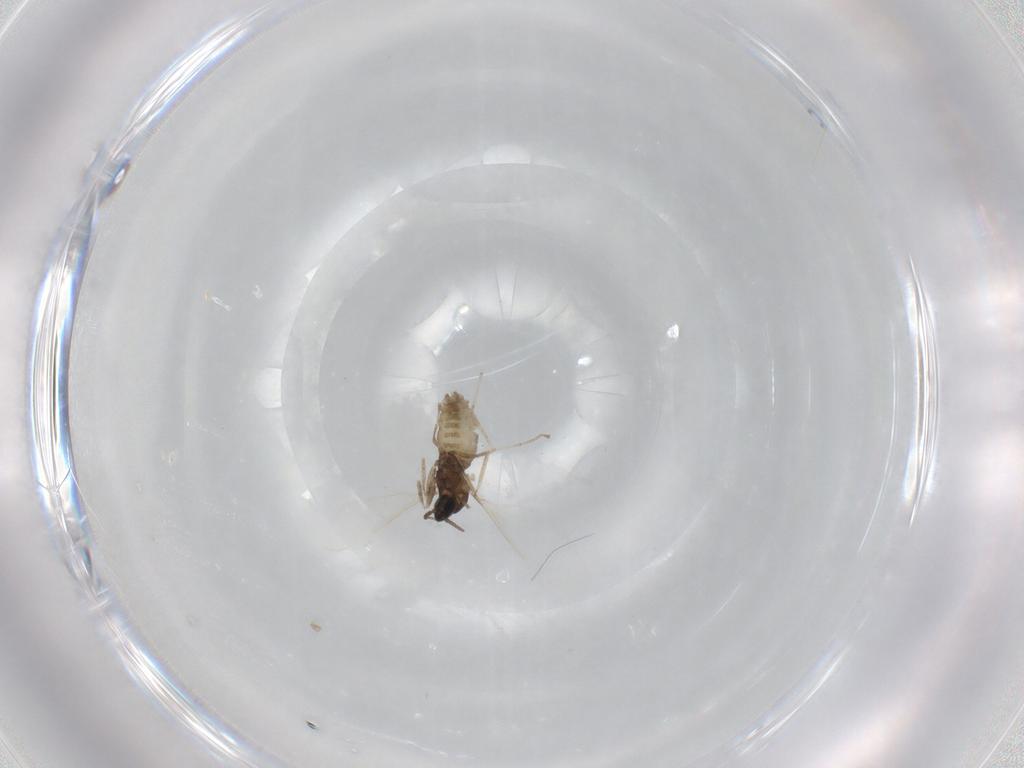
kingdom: Animalia
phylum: Arthropoda
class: Insecta
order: Diptera
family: Cecidomyiidae
